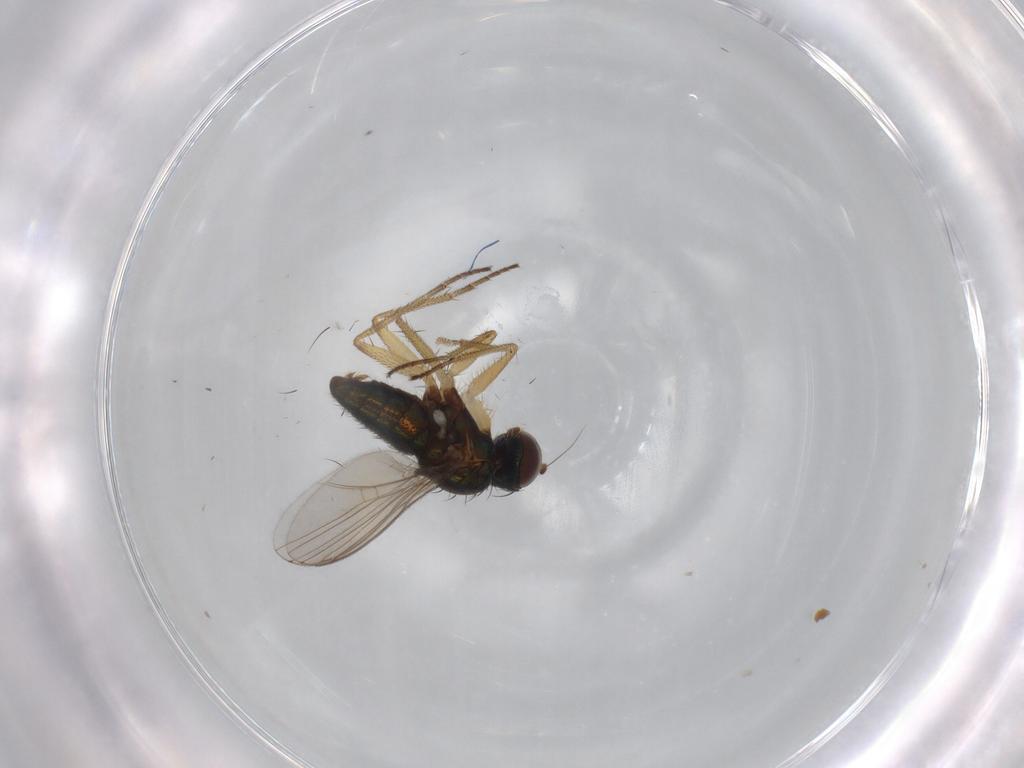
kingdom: Animalia
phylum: Arthropoda
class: Insecta
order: Diptera
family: Dolichopodidae
